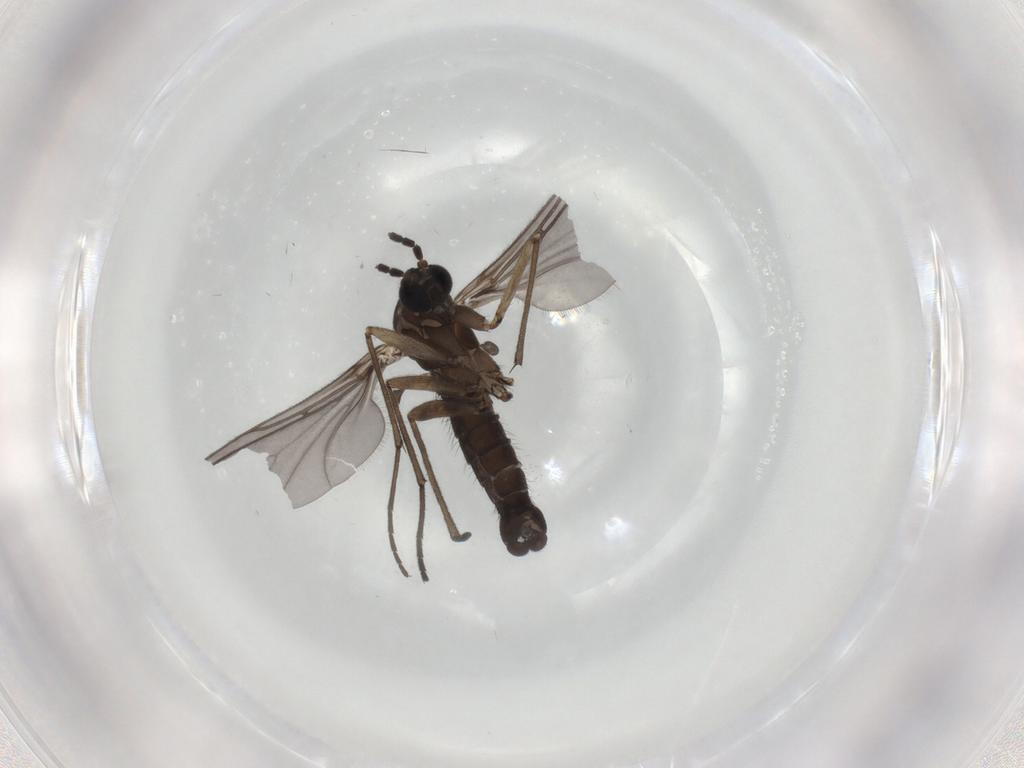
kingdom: Animalia
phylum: Arthropoda
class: Insecta
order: Diptera
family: Sciaridae
